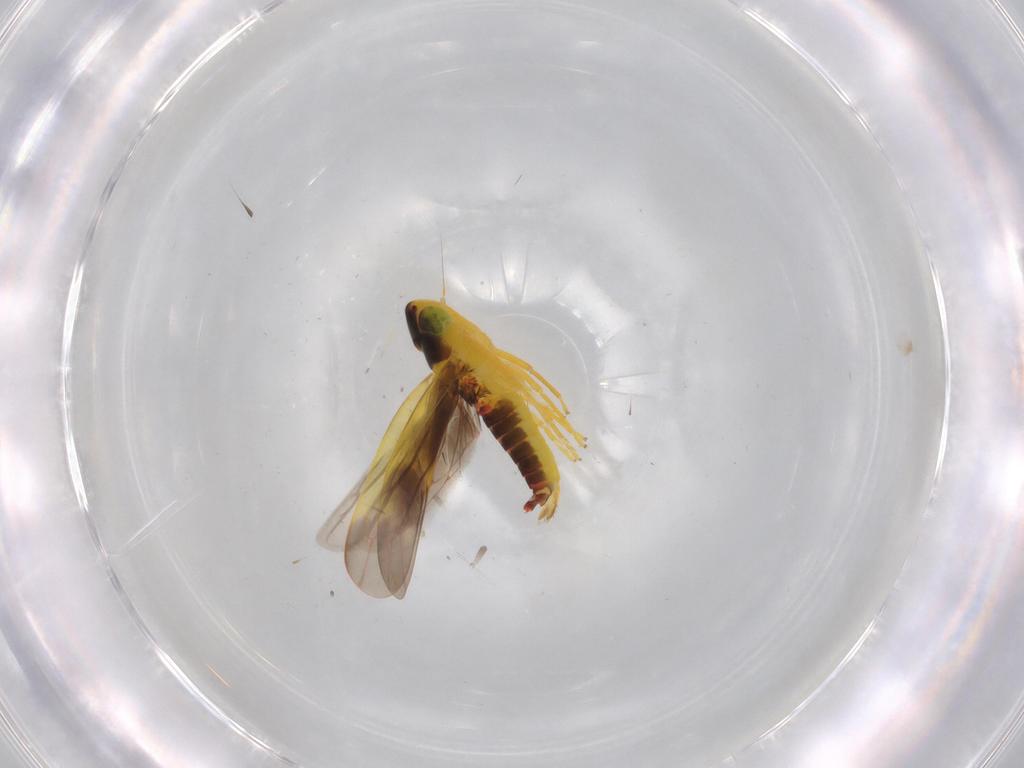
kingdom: Animalia
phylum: Arthropoda
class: Insecta
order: Hemiptera
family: Cicadellidae
